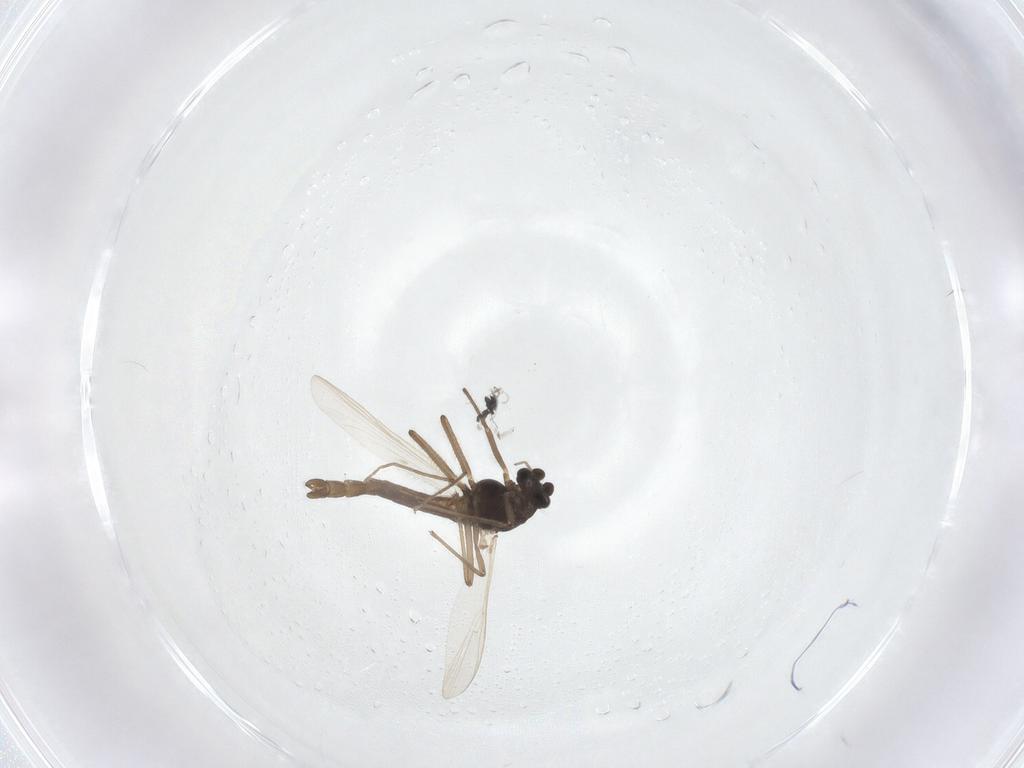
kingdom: Animalia
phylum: Arthropoda
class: Insecta
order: Diptera
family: Chironomidae
